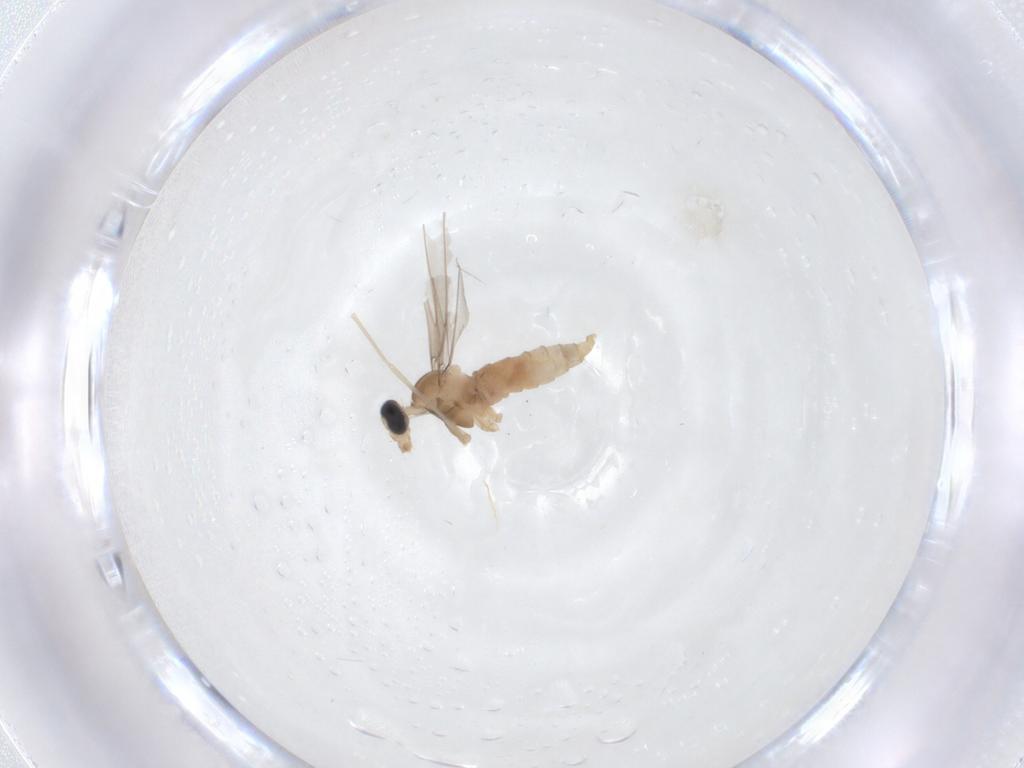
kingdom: Animalia
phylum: Arthropoda
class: Insecta
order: Diptera
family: Cecidomyiidae
